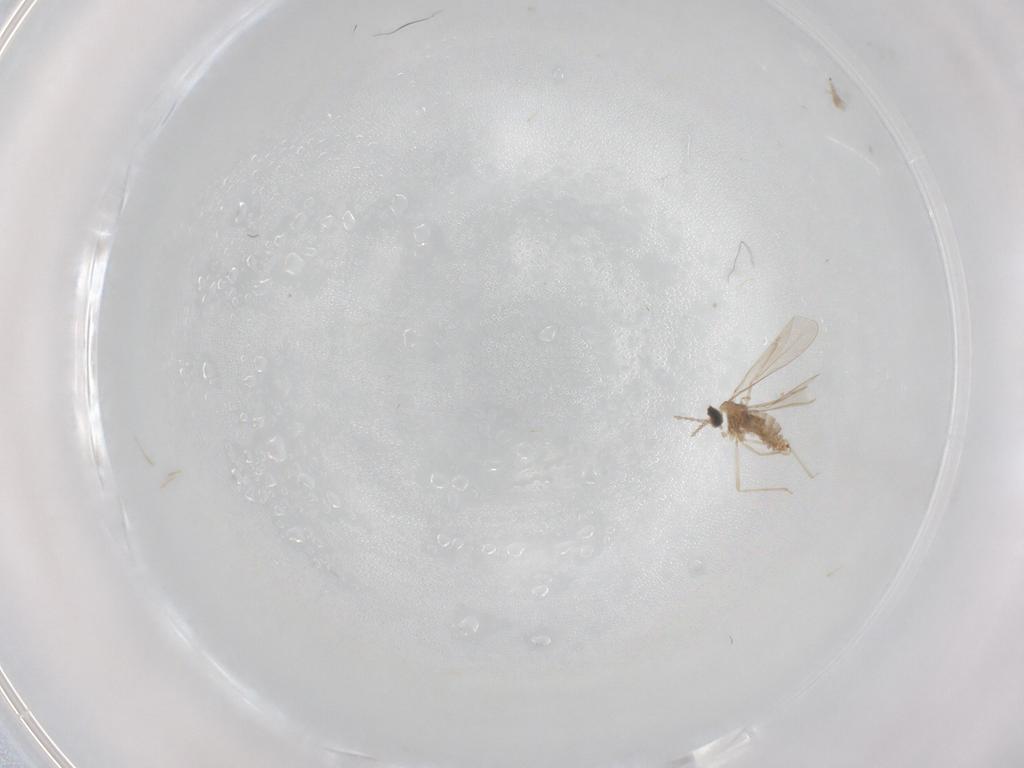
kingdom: Animalia
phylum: Arthropoda
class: Insecta
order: Diptera
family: Cecidomyiidae
